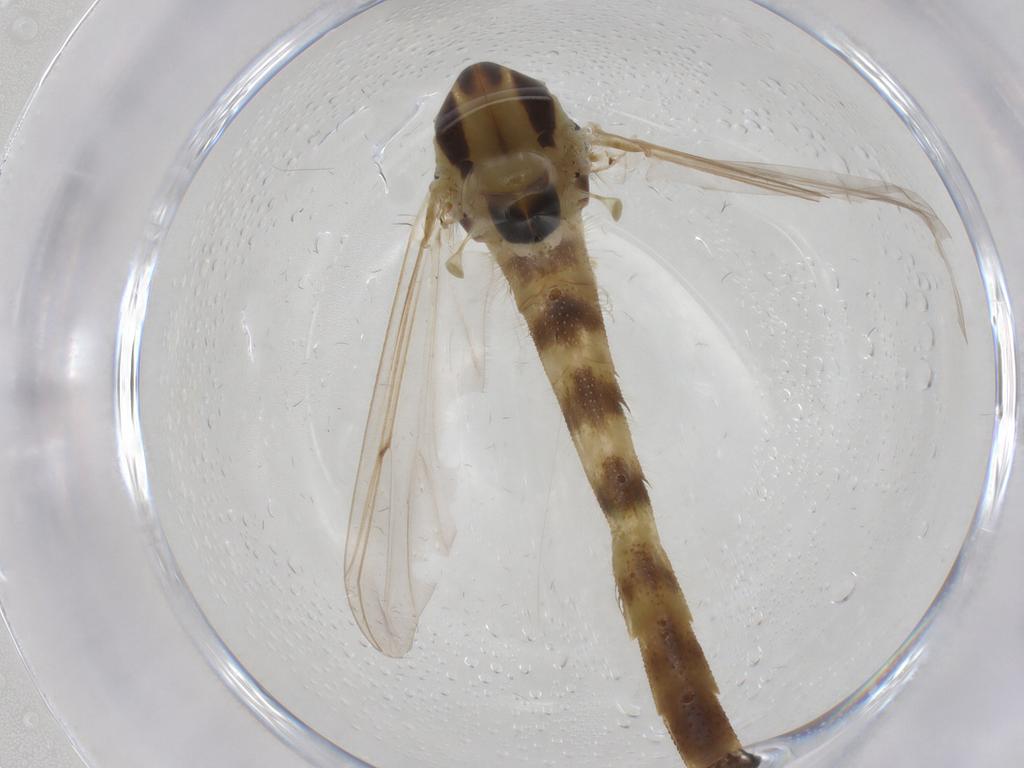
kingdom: Animalia
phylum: Arthropoda
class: Insecta
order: Diptera
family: Chironomidae
